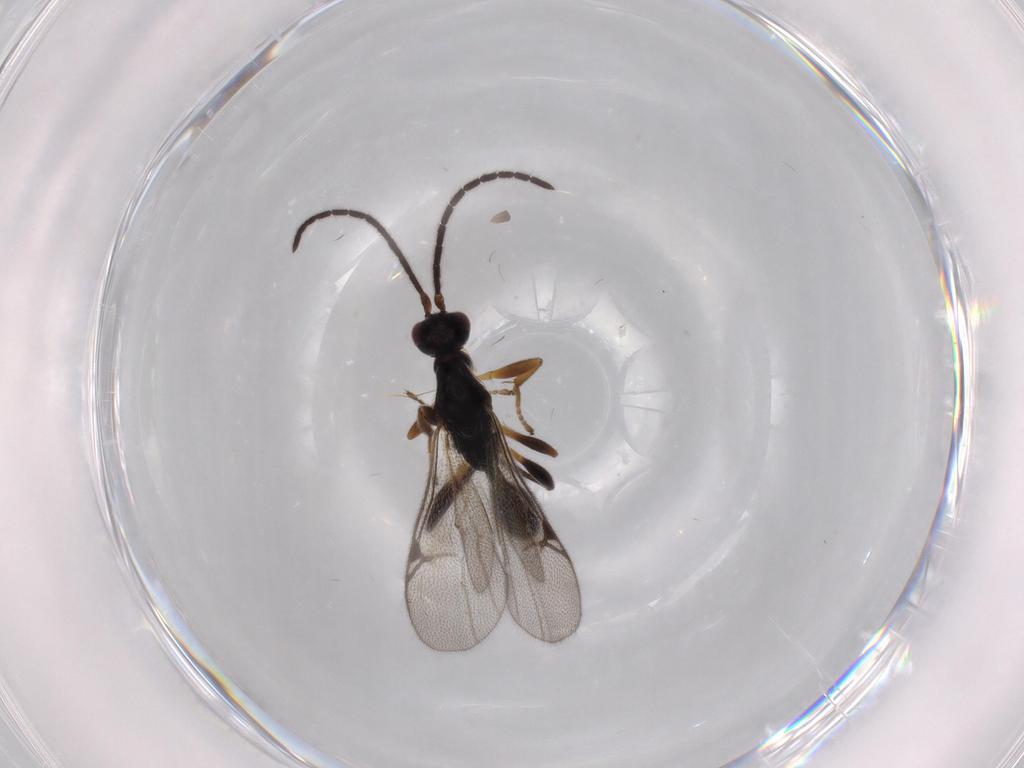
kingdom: Animalia
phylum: Arthropoda
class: Insecta
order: Hymenoptera
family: Proctotrupidae
